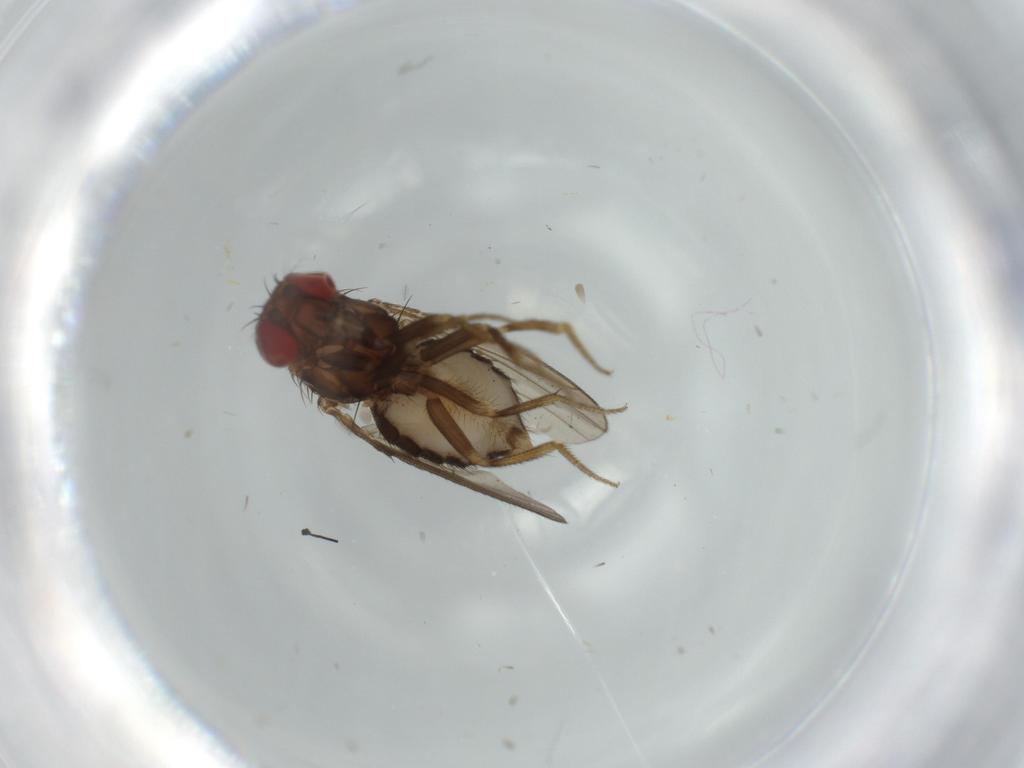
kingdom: Animalia
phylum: Arthropoda
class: Insecta
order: Diptera
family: Drosophilidae
